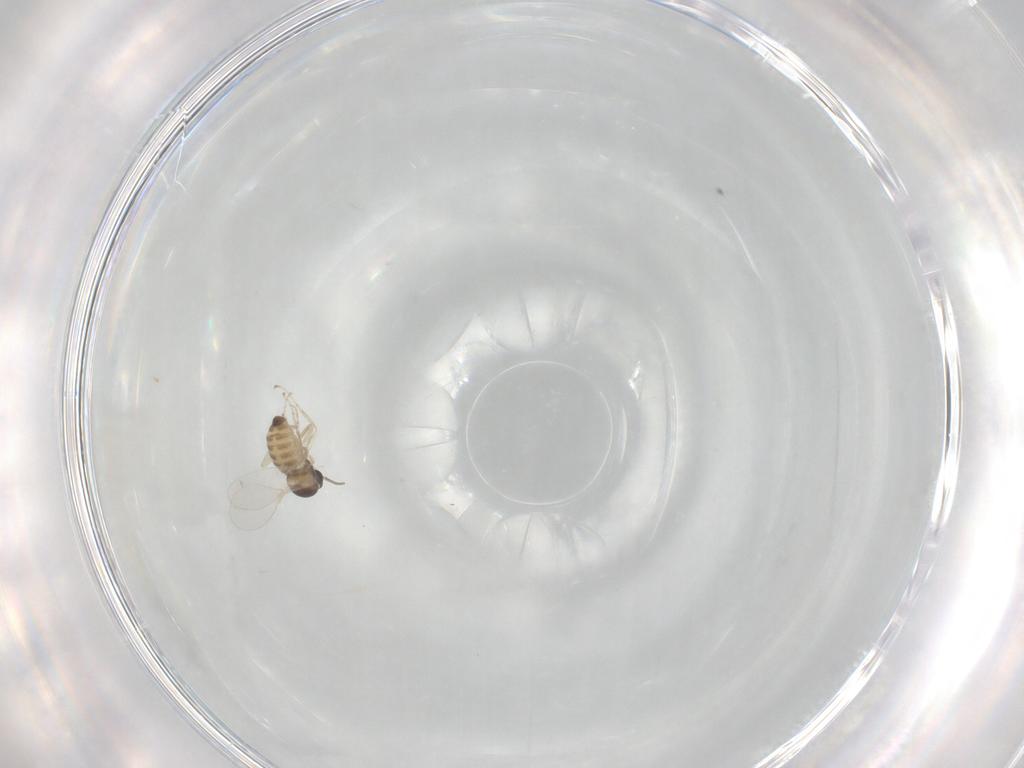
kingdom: Animalia
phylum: Arthropoda
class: Insecta
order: Diptera
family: Cecidomyiidae
